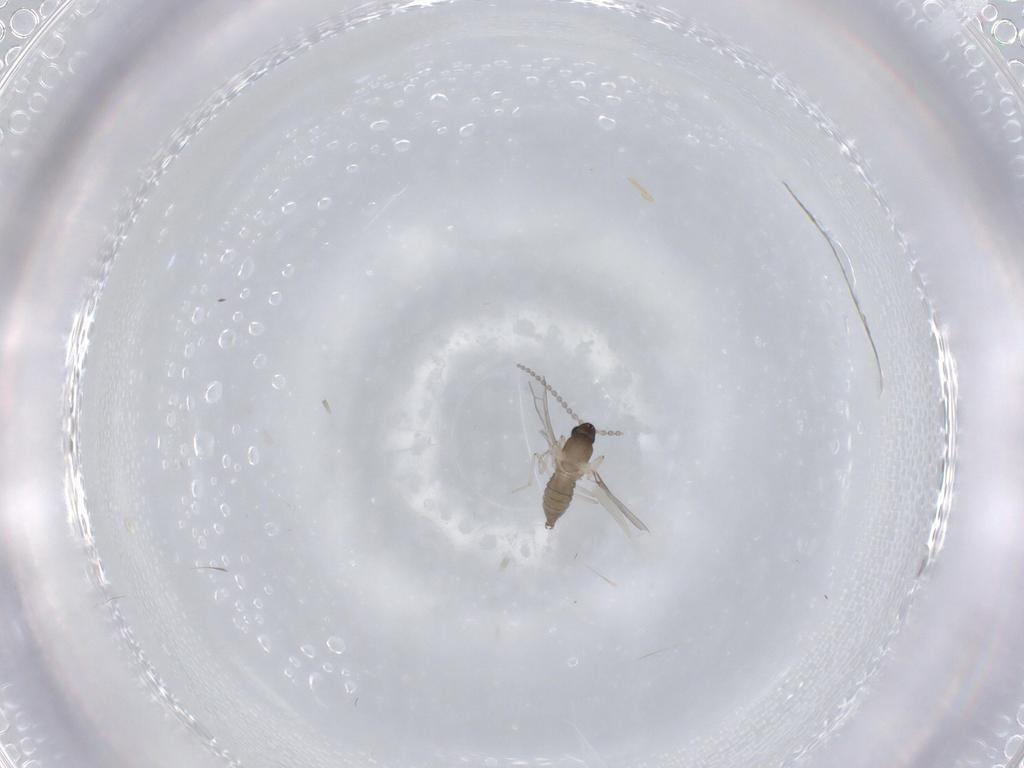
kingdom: Animalia
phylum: Arthropoda
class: Insecta
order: Diptera
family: Cecidomyiidae
